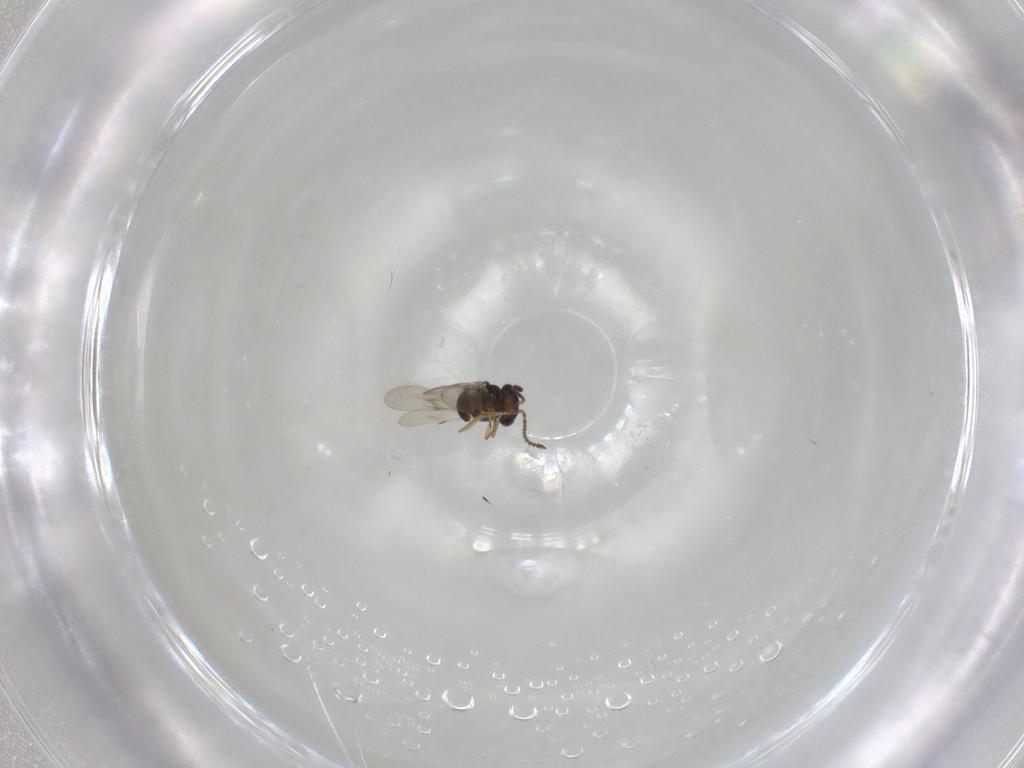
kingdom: Animalia
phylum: Arthropoda
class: Insecta
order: Hymenoptera
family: Scelionidae
